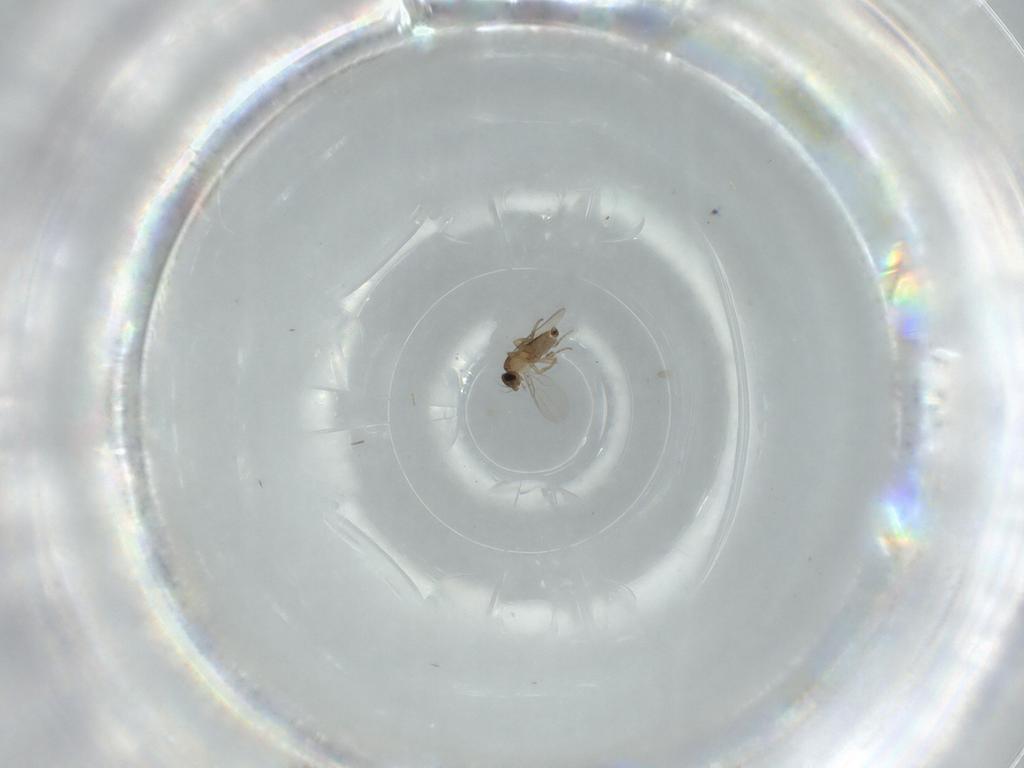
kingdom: Animalia
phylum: Arthropoda
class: Insecta
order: Diptera
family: Phoridae
